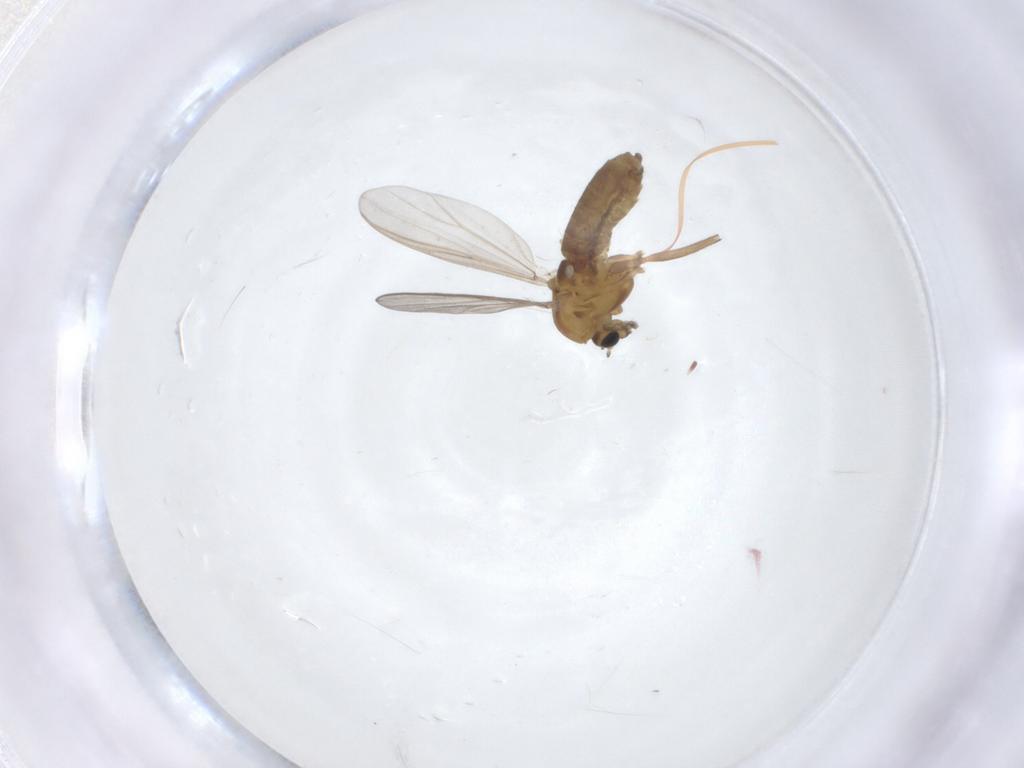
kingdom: Animalia
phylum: Arthropoda
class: Insecta
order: Diptera
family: Chironomidae
